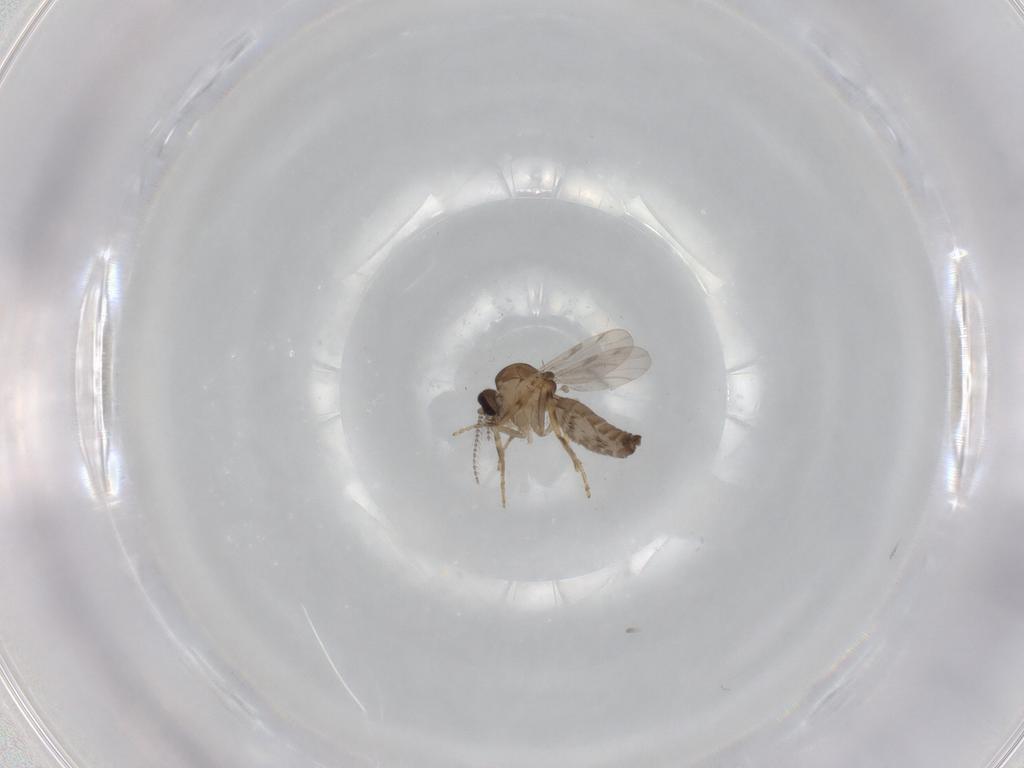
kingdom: Animalia
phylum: Arthropoda
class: Insecta
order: Diptera
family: Ceratopogonidae
